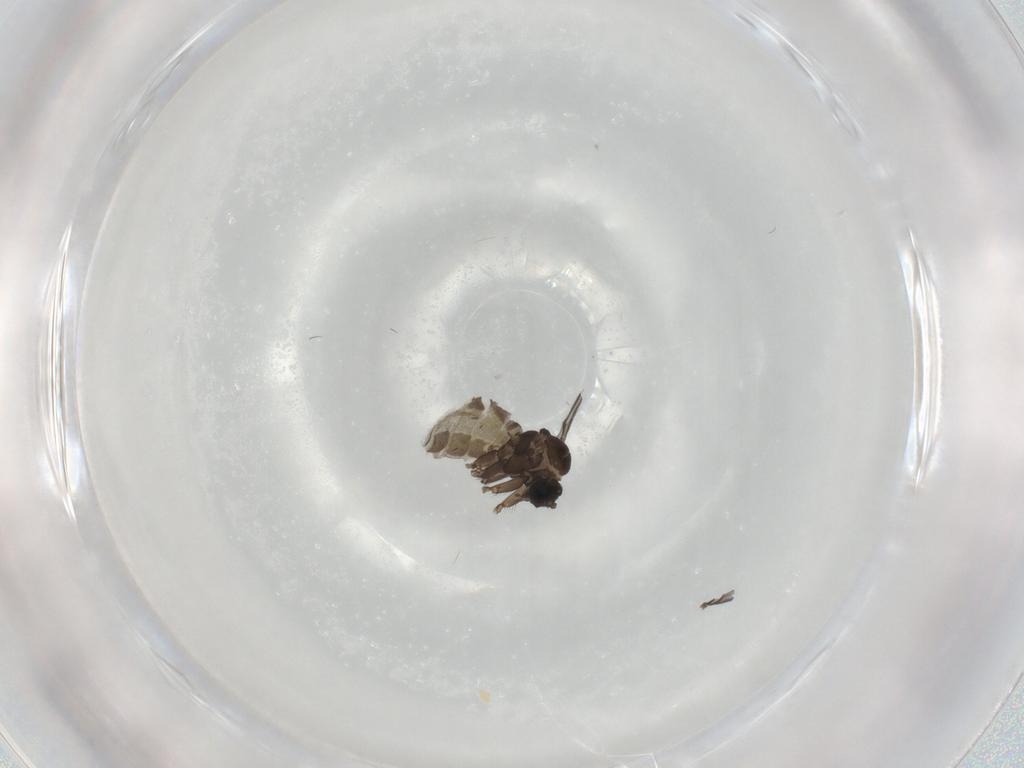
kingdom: Animalia
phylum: Arthropoda
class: Insecta
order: Diptera
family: Sciaridae
